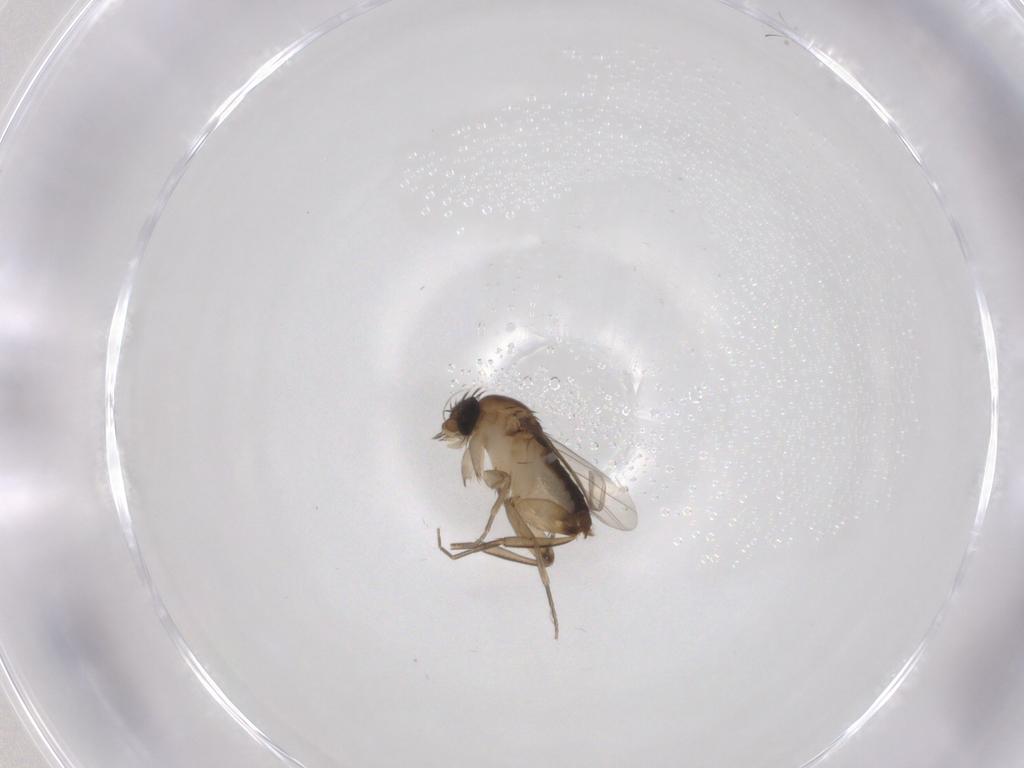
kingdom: Animalia
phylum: Arthropoda
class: Insecta
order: Diptera
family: Phoridae
